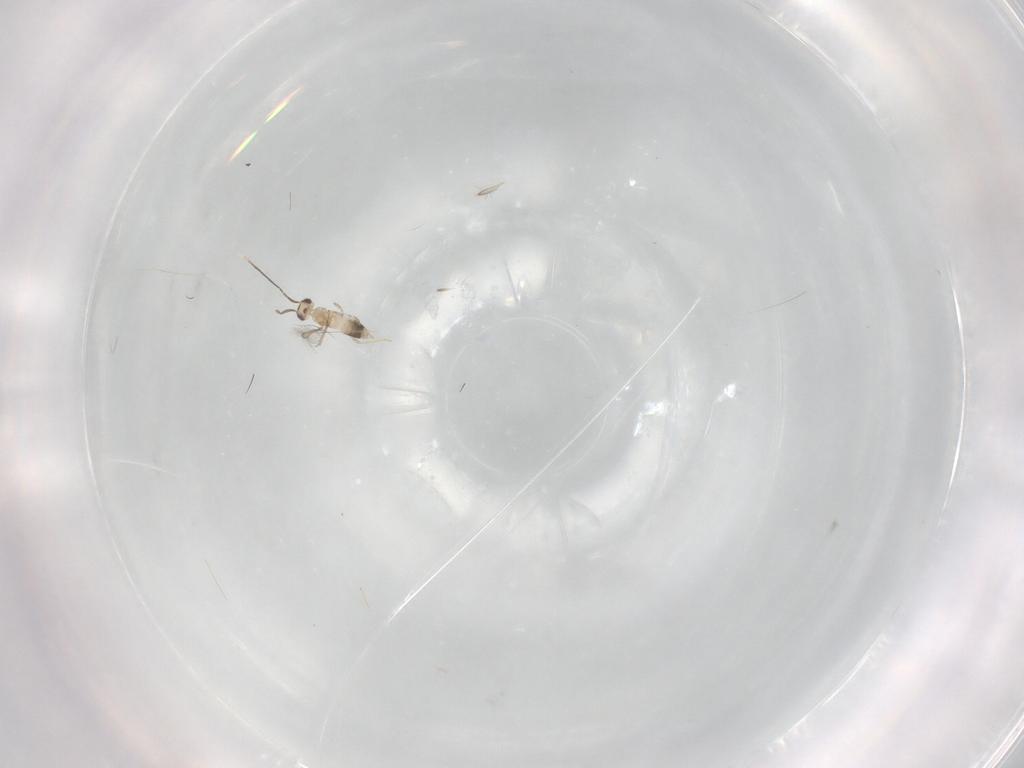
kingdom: Animalia
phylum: Arthropoda
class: Insecta
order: Hymenoptera
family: Mymaridae
